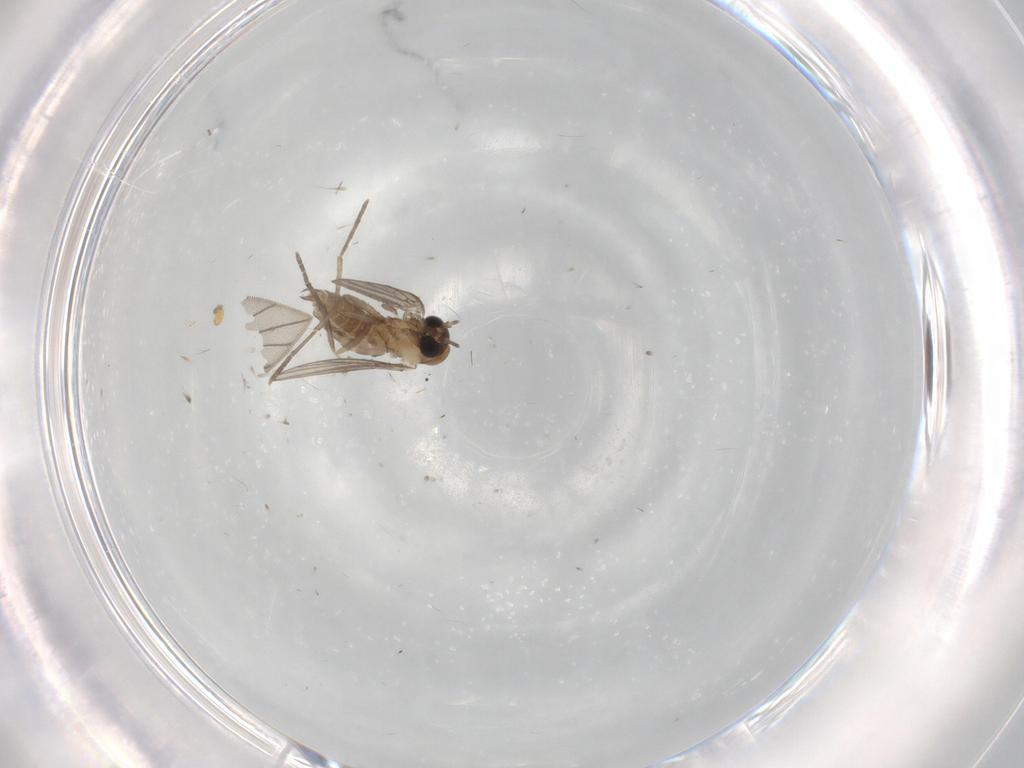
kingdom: Animalia
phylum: Arthropoda
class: Insecta
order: Diptera
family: Psychodidae
